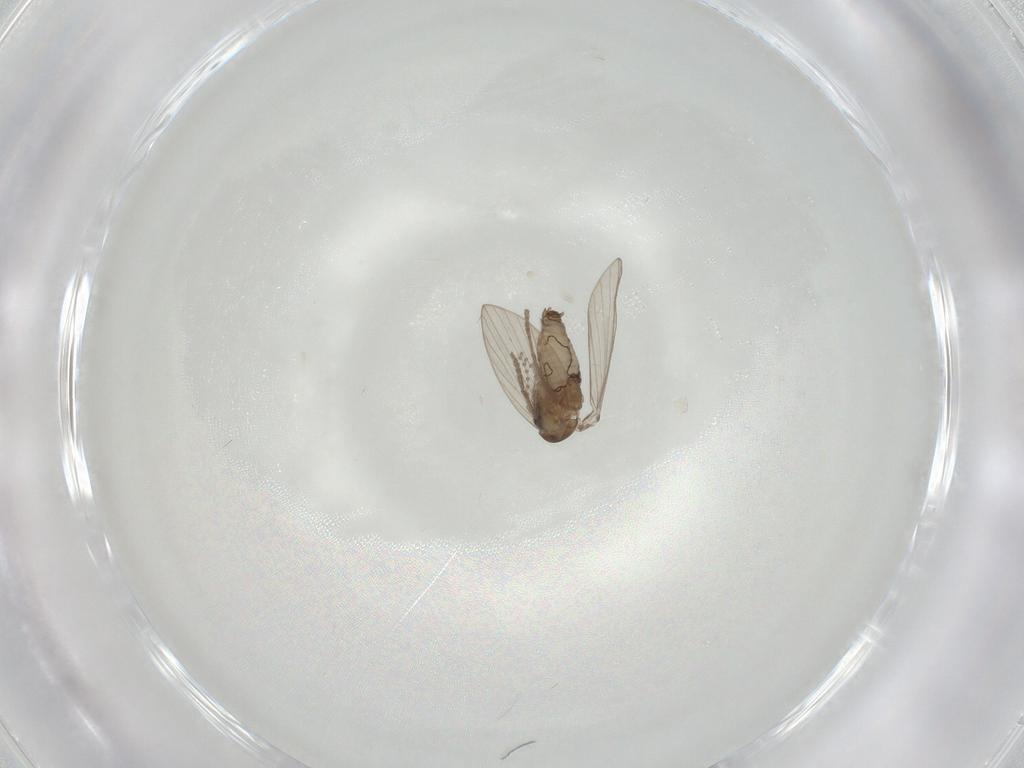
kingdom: Animalia
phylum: Arthropoda
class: Insecta
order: Diptera
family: Psychodidae
